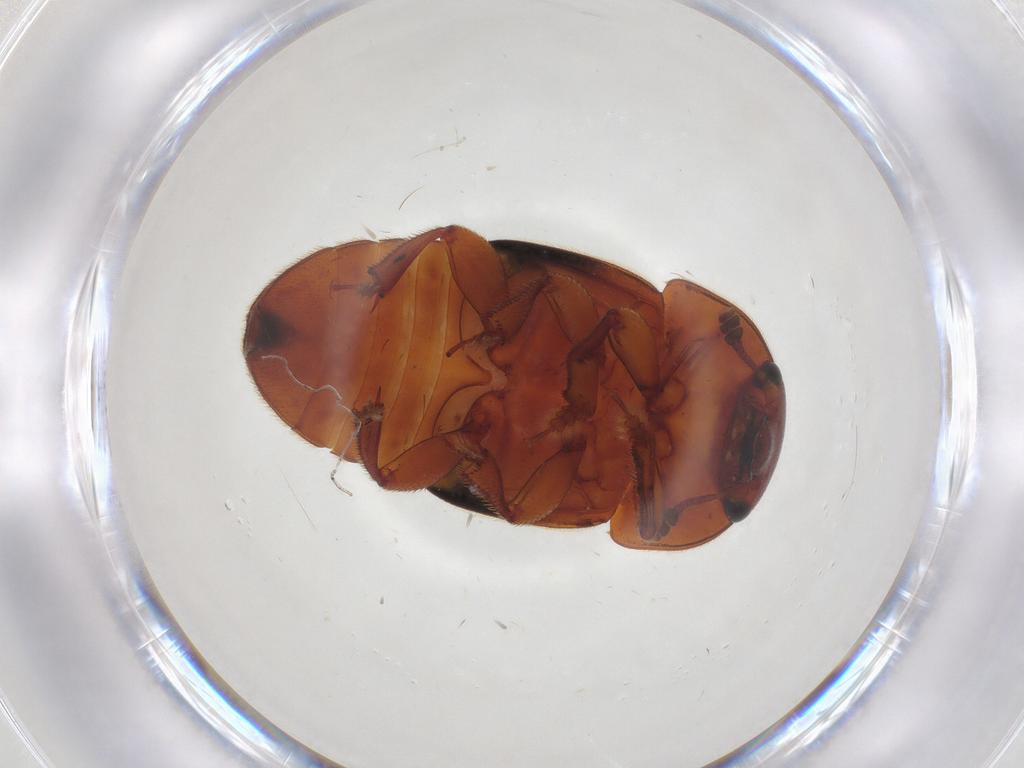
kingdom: Animalia
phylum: Arthropoda
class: Insecta
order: Coleoptera
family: Nitidulidae
